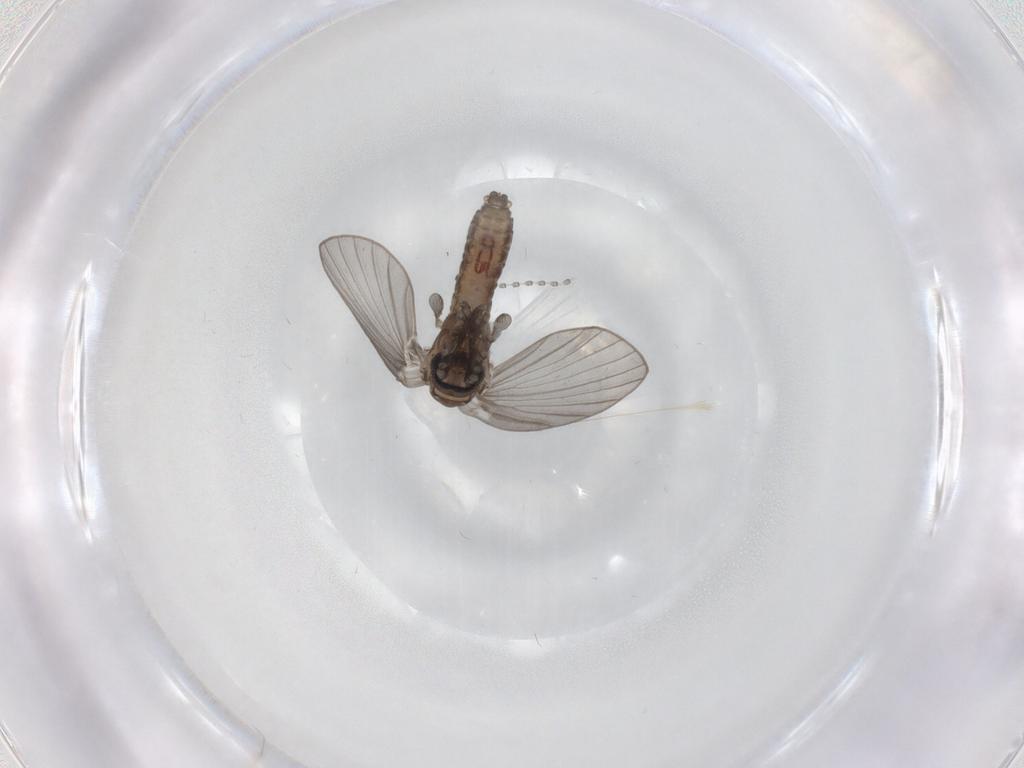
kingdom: Animalia
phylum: Arthropoda
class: Insecta
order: Diptera
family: Psychodidae
